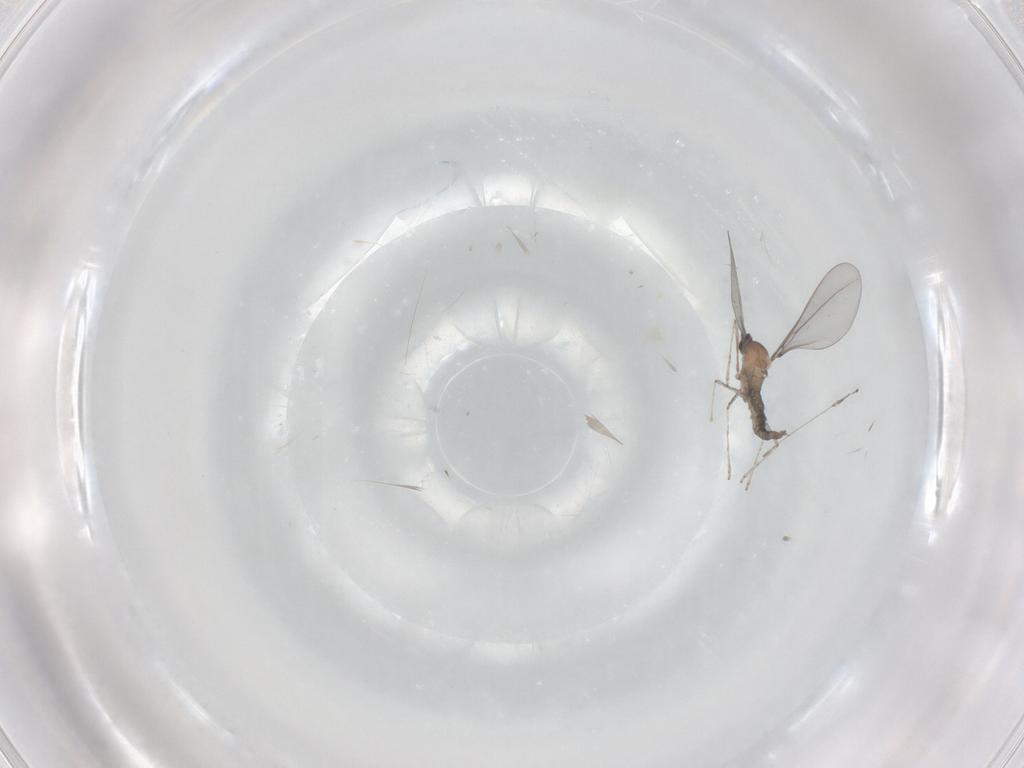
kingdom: Animalia
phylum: Arthropoda
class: Insecta
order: Diptera
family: Cecidomyiidae
